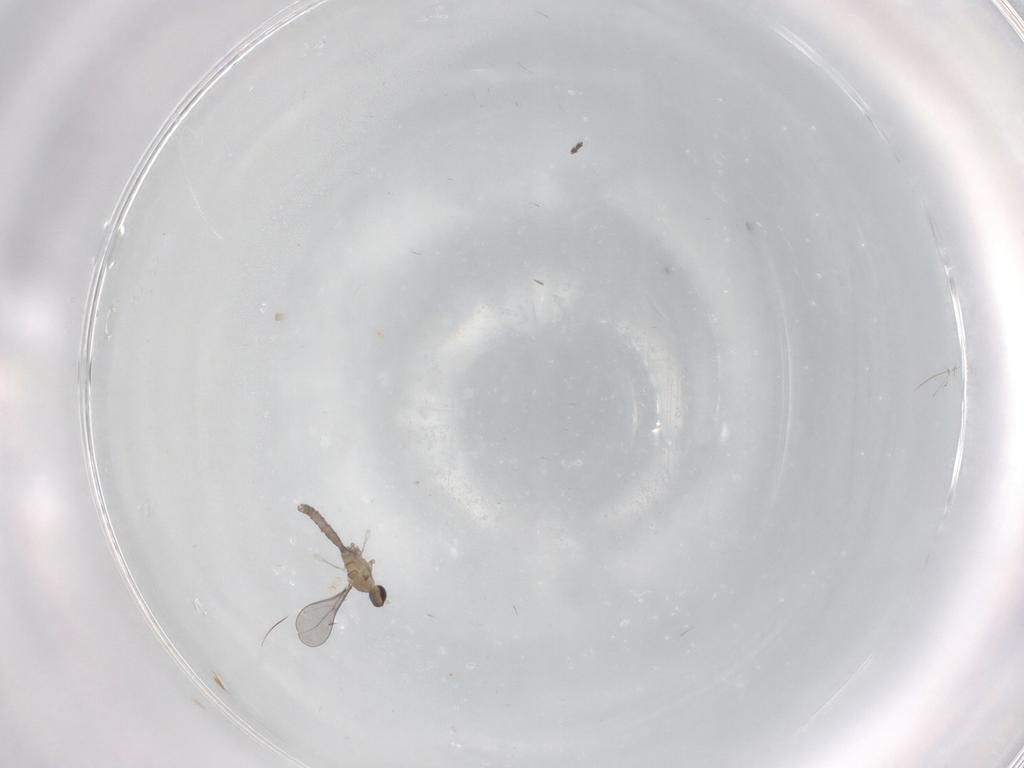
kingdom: Animalia
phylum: Arthropoda
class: Insecta
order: Diptera
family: Cecidomyiidae
